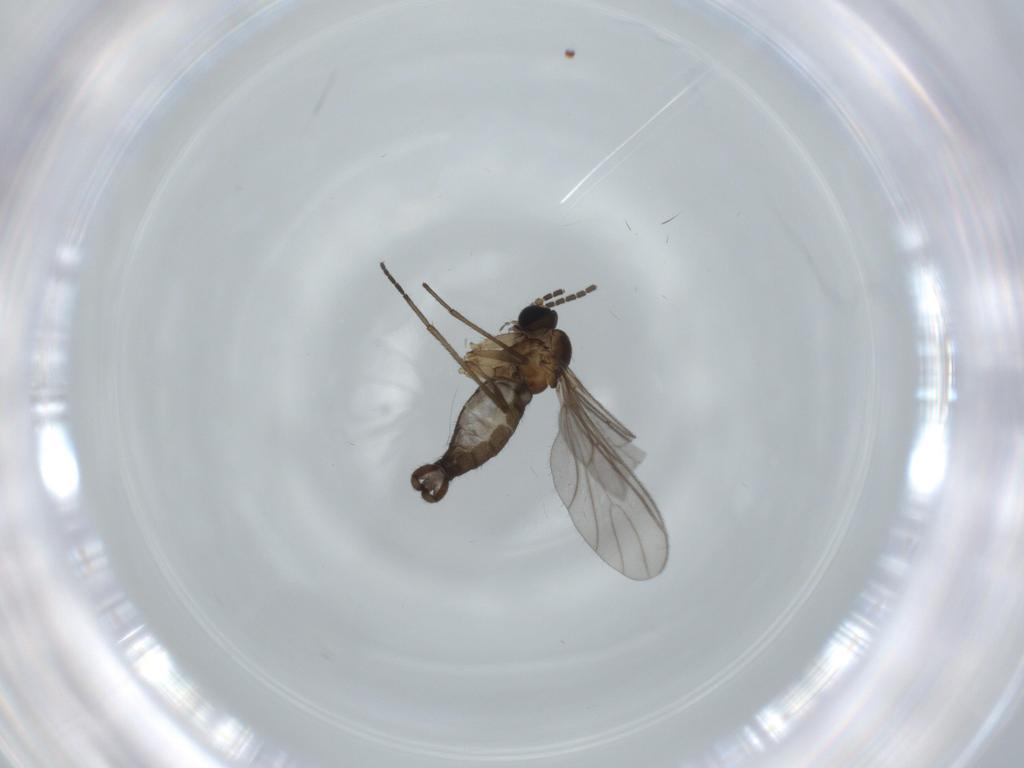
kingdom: Animalia
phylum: Arthropoda
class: Insecta
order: Diptera
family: Sciaridae
